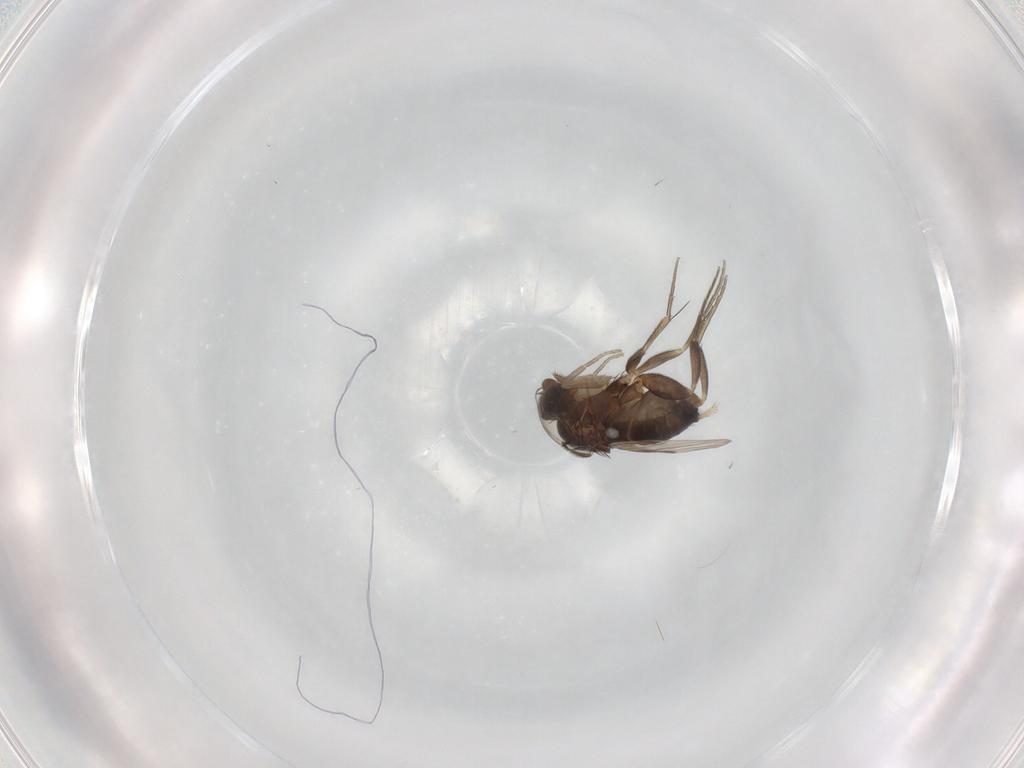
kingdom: Animalia
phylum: Arthropoda
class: Insecta
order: Diptera
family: Phoridae
